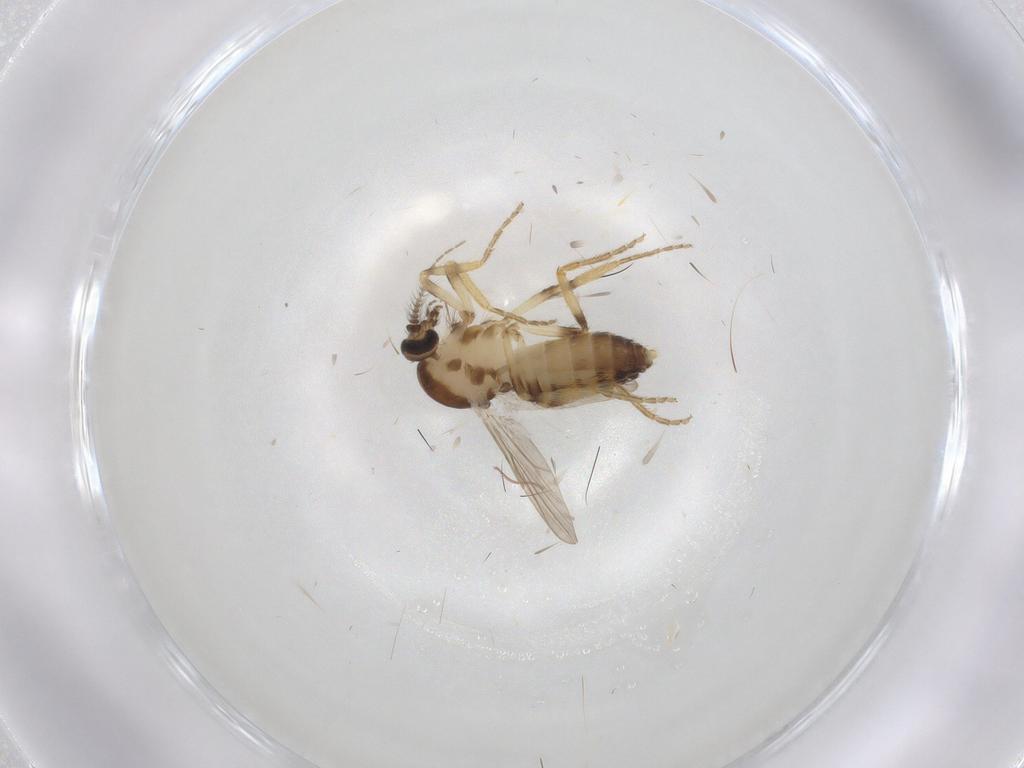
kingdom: Animalia
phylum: Arthropoda
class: Insecta
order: Diptera
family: Ceratopogonidae
